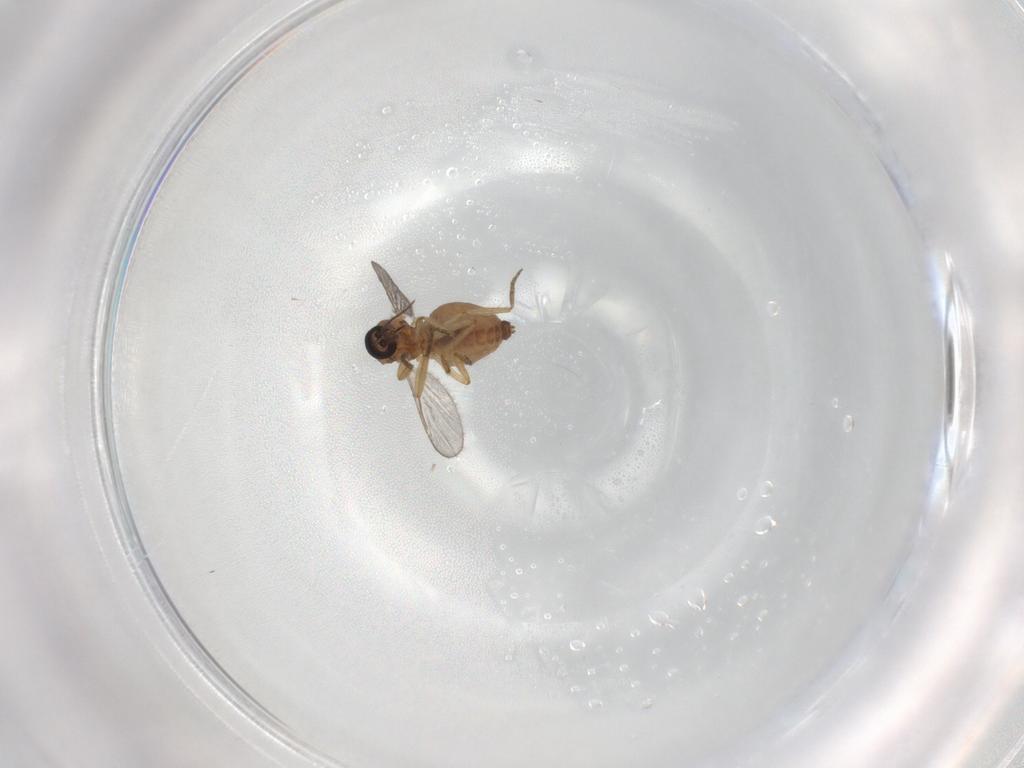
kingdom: Animalia
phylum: Arthropoda
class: Insecta
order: Diptera
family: Ceratopogonidae
